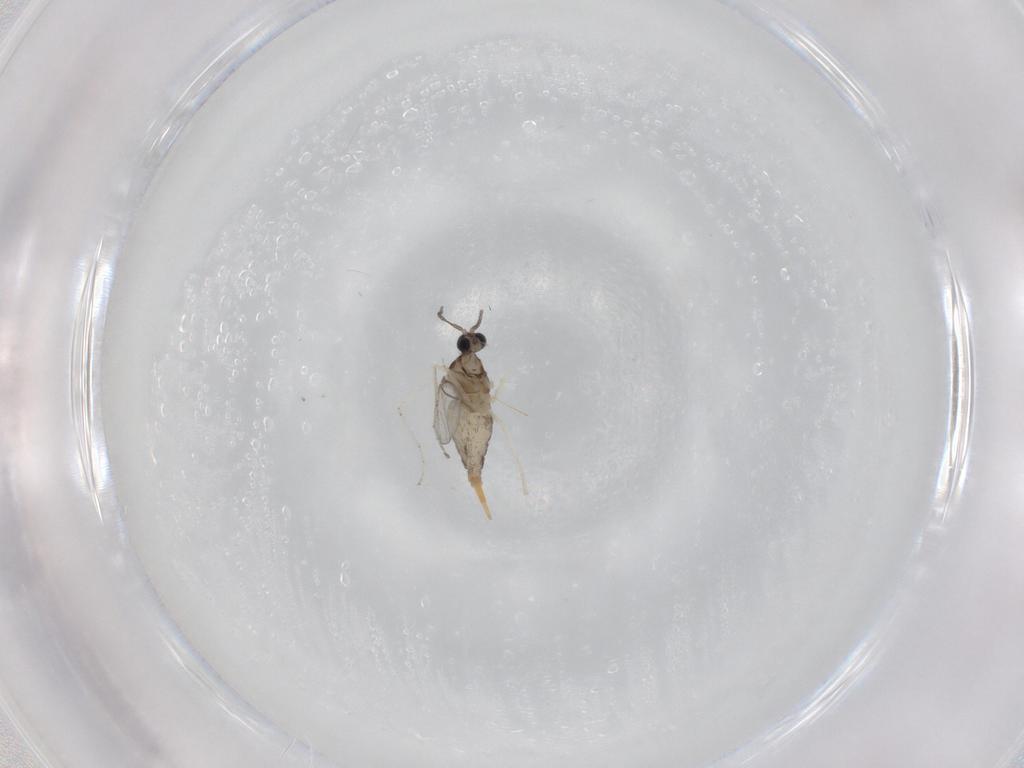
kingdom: Animalia
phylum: Arthropoda
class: Insecta
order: Diptera
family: Cecidomyiidae
